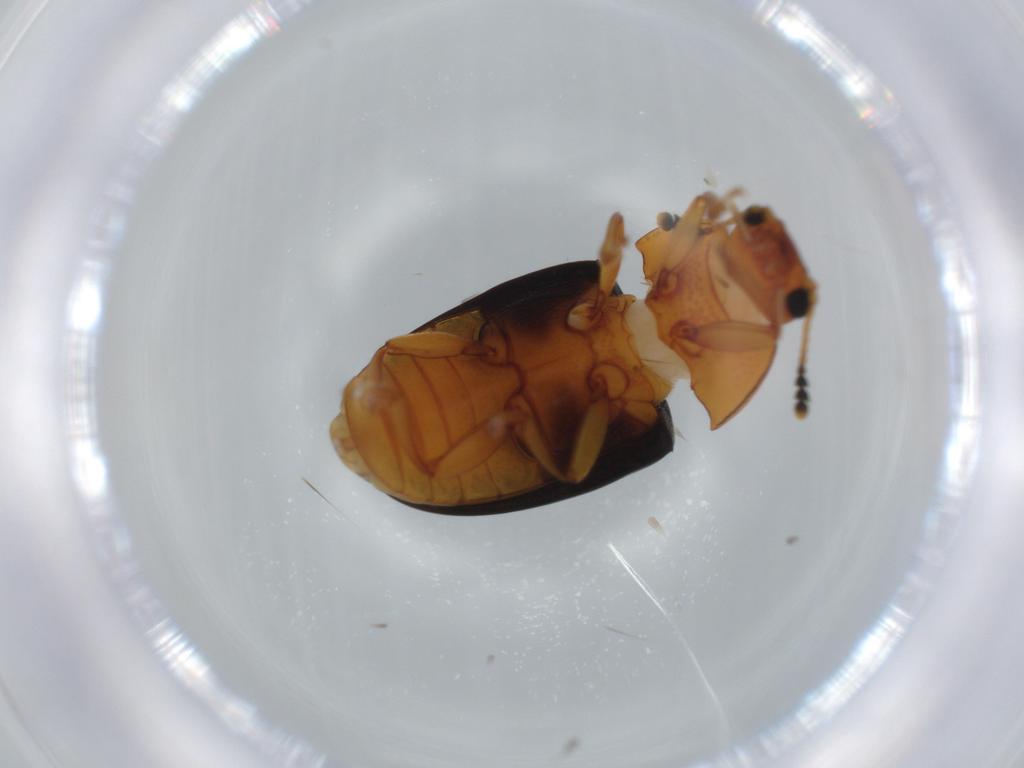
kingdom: Animalia
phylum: Arthropoda
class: Insecta
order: Coleoptera
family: Erotylidae
